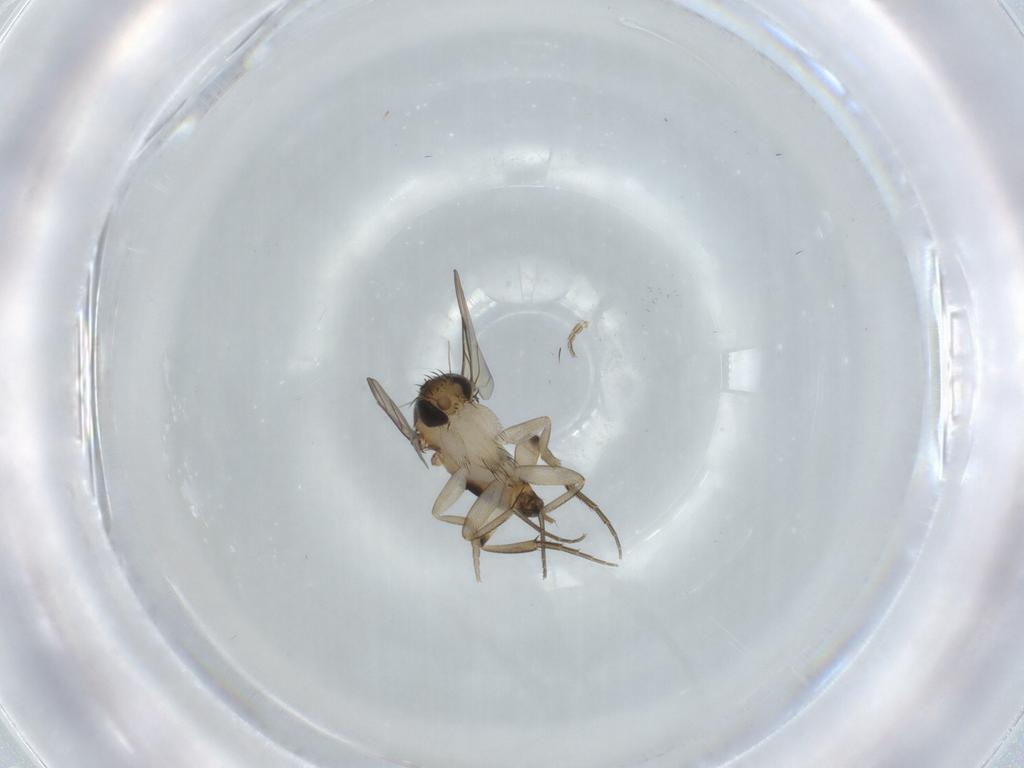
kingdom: Animalia
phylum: Arthropoda
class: Insecta
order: Diptera
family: Phoridae
